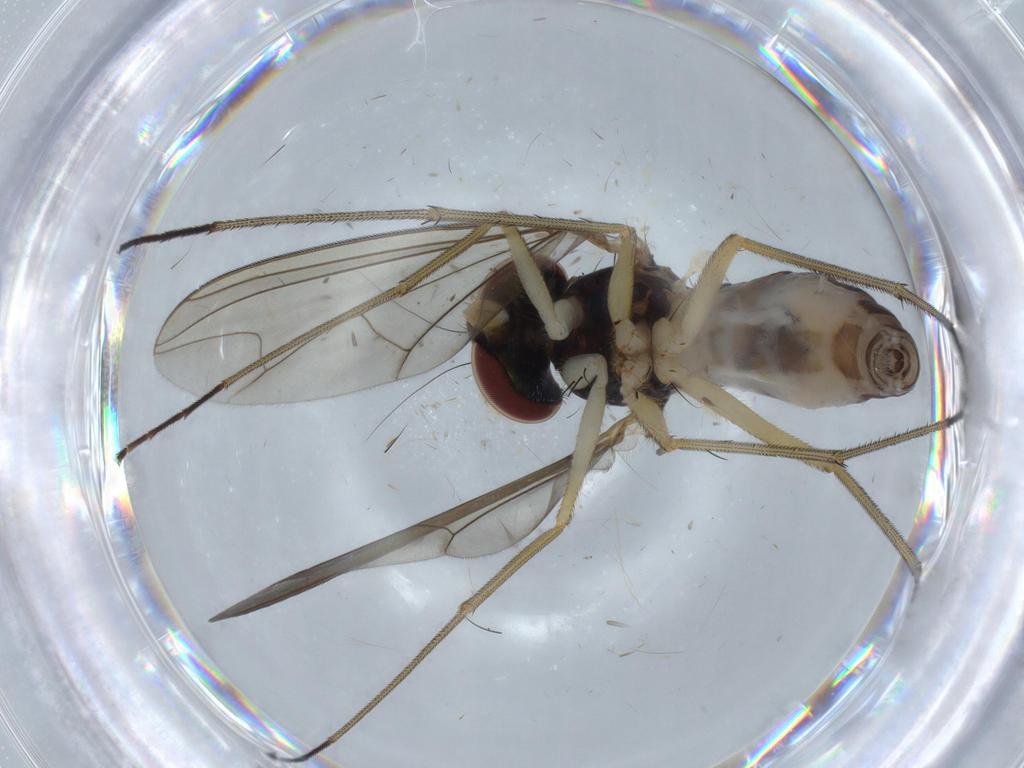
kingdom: Animalia
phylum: Arthropoda
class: Insecta
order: Diptera
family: Dolichopodidae
